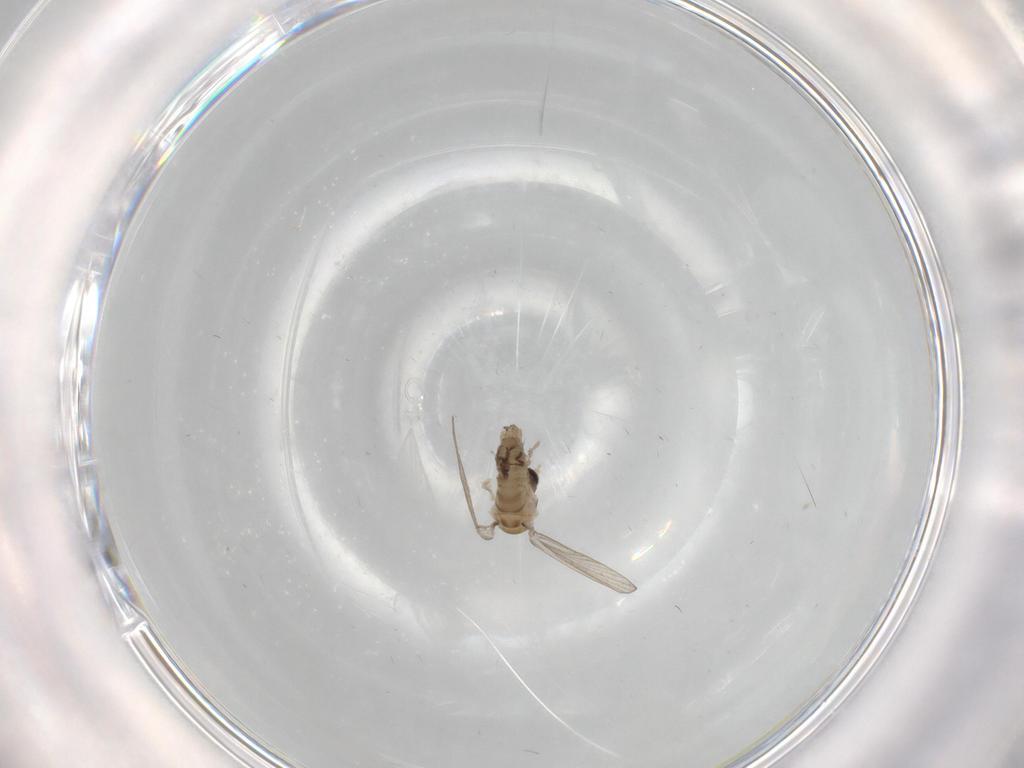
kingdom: Animalia
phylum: Arthropoda
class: Insecta
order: Diptera
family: Psychodidae
